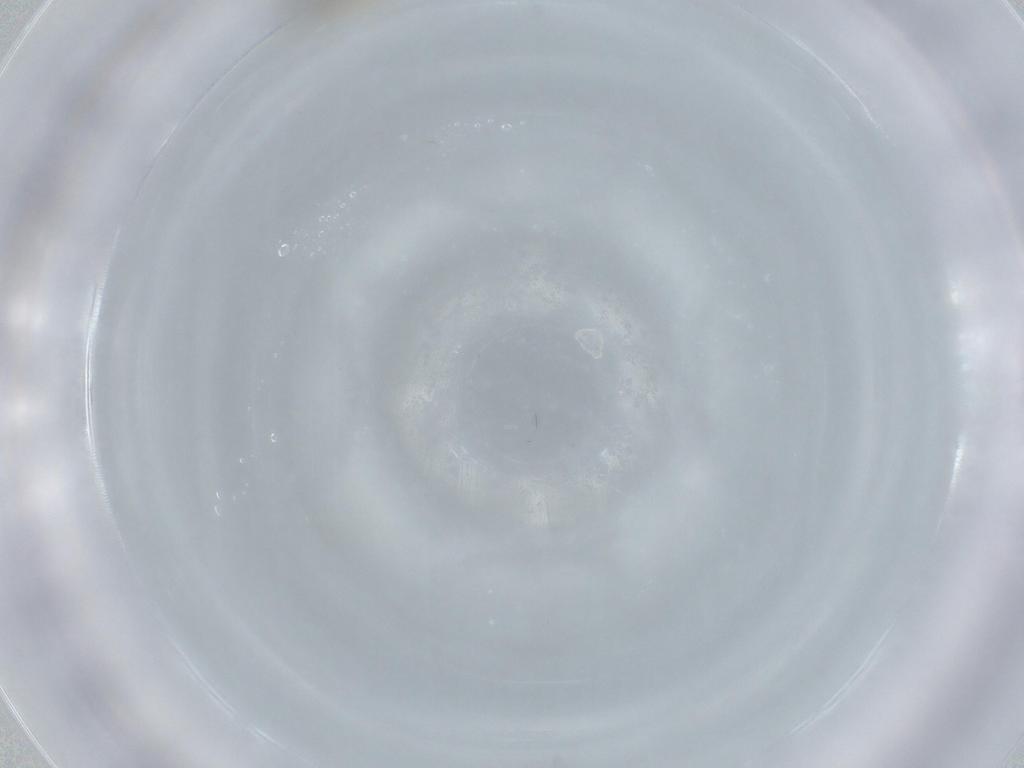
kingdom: Animalia
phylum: Arthropoda
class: Insecta
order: Diptera
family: Cecidomyiidae
